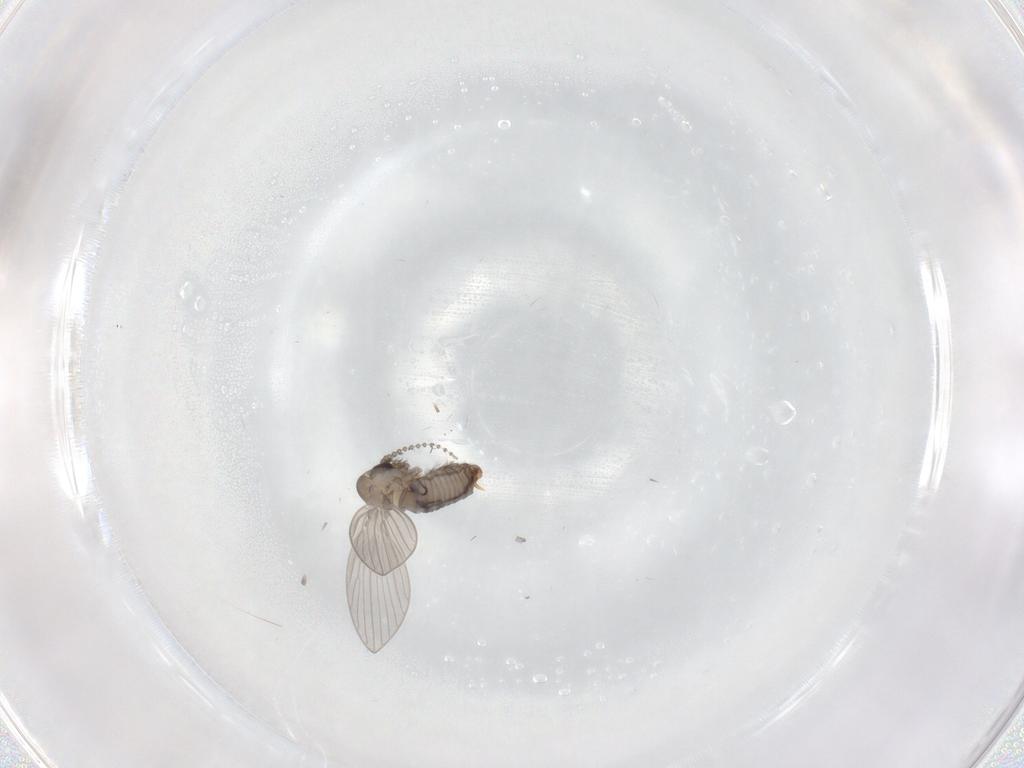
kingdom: Animalia
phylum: Arthropoda
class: Insecta
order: Diptera
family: Psychodidae
